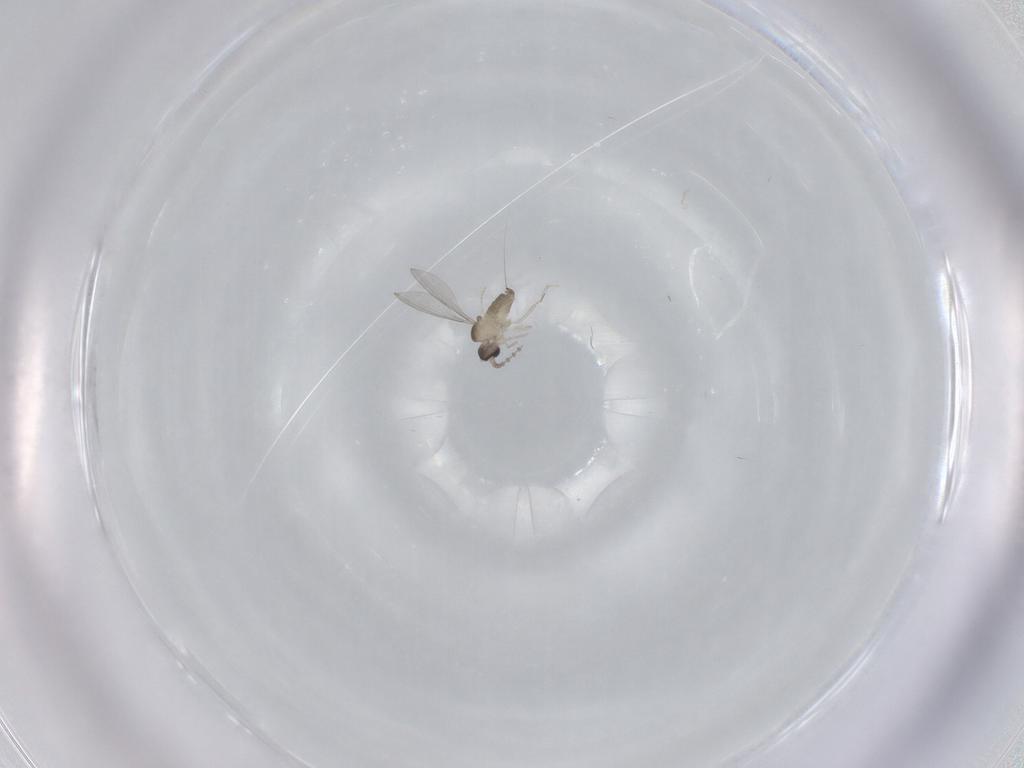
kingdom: Animalia
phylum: Arthropoda
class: Insecta
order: Diptera
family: Cecidomyiidae
